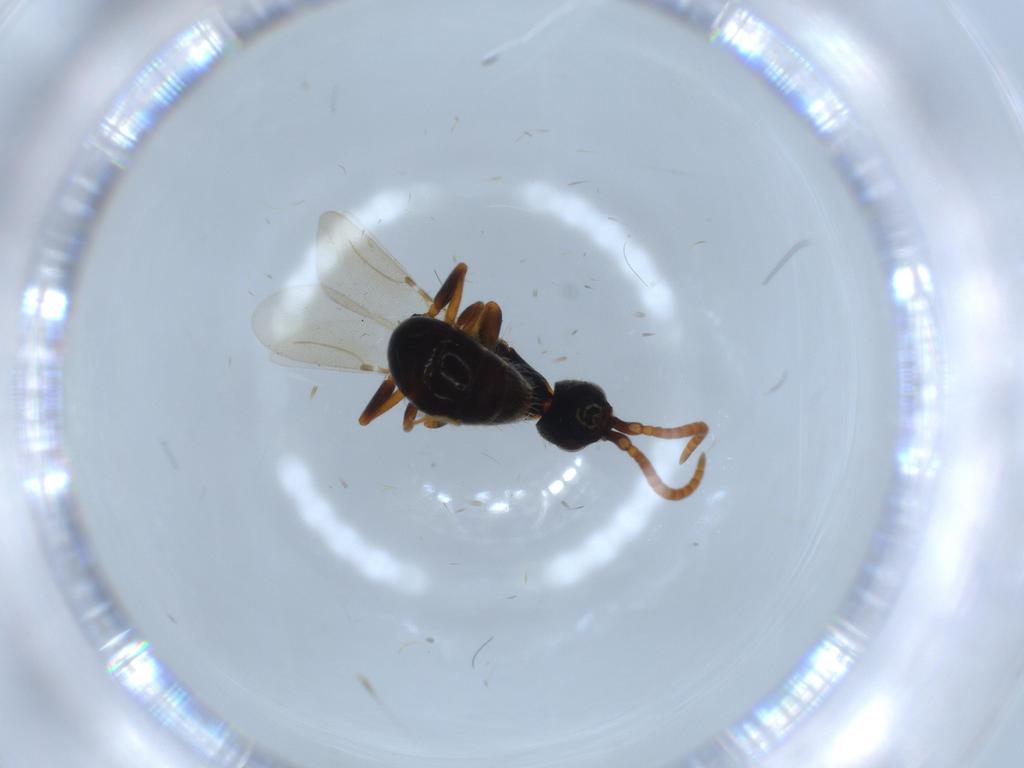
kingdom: Animalia
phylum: Arthropoda
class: Insecta
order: Hymenoptera
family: Bethylidae
